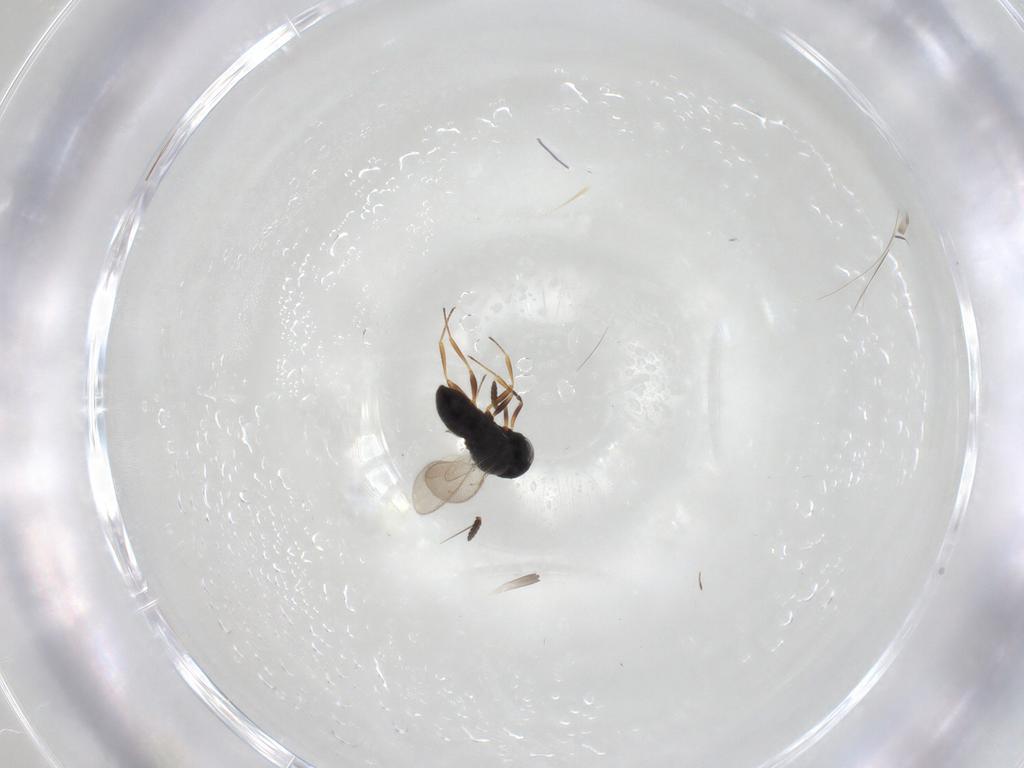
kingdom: Animalia
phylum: Arthropoda
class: Insecta
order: Hymenoptera
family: Scelionidae
